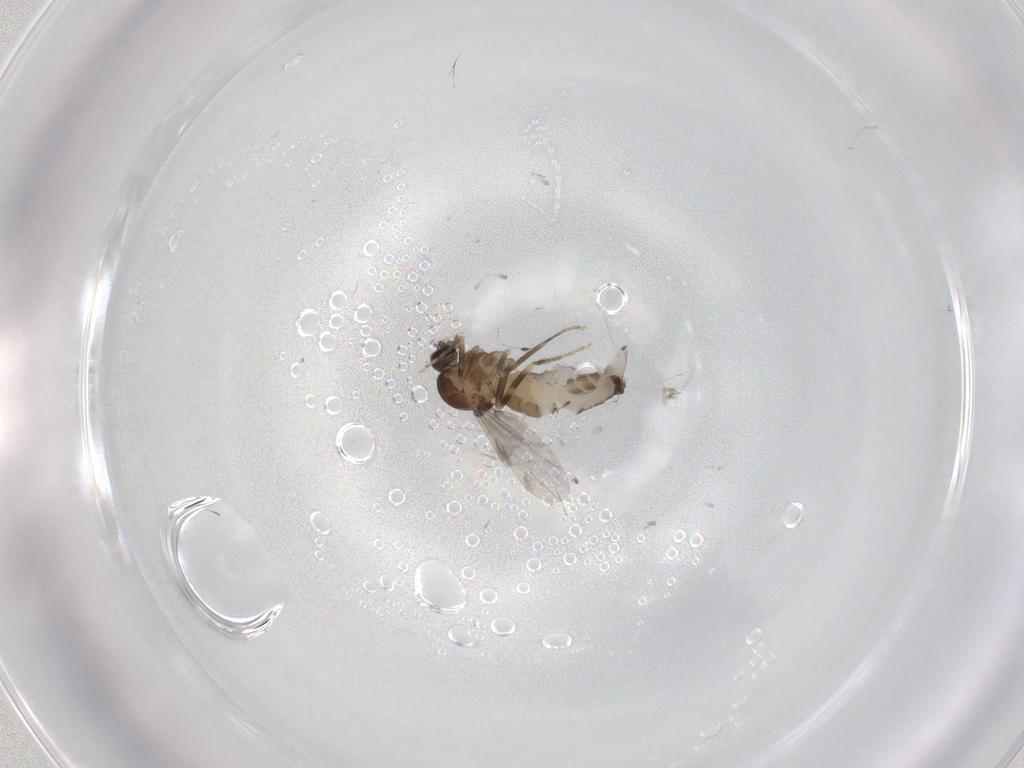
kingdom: Animalia
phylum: Arthropoda
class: Insecta
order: Diptera
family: Ceratopogonidae
